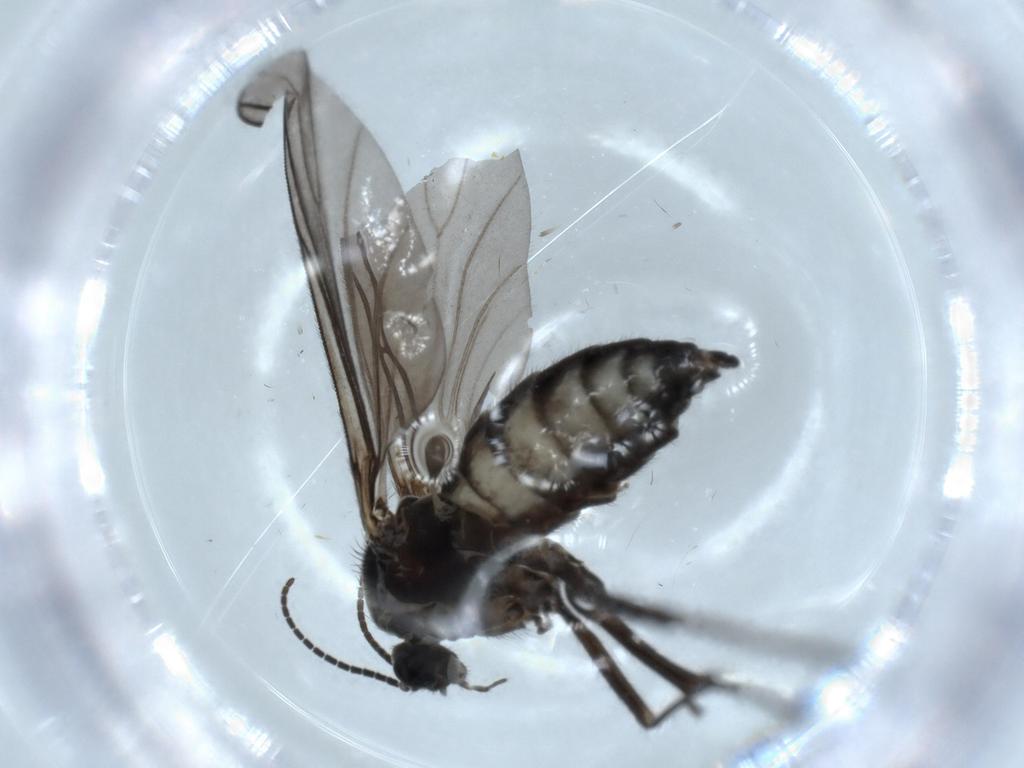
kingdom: Animalia
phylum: Arthropoda
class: Insecta
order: Diptera
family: Sciaridae
